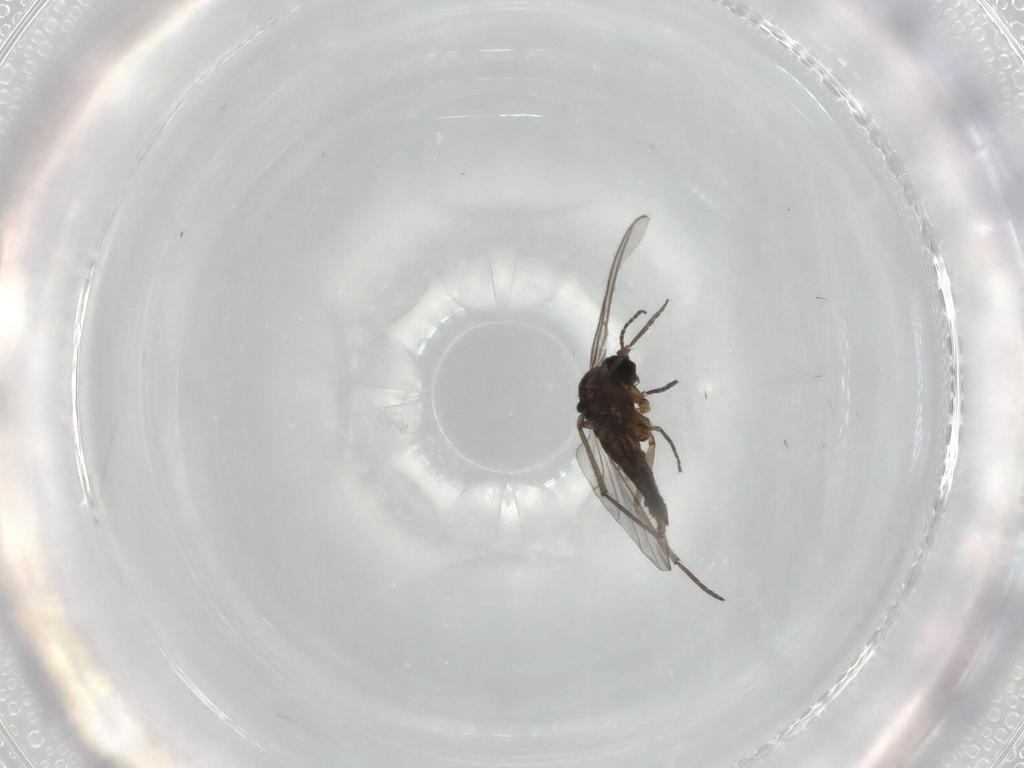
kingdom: Animalia
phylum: Arthropoda
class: Insecta
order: Diptera
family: Sciaridae
